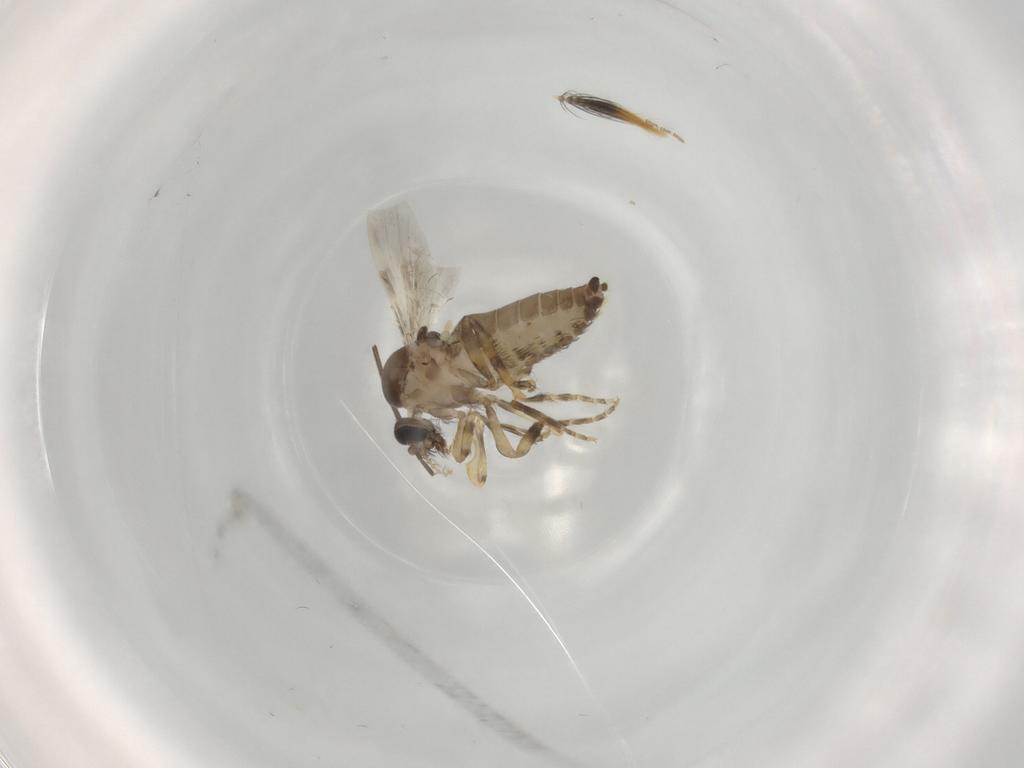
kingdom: Animalia
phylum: Arthropoda
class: Insecta
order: Diptera
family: Ceratopogonidae
